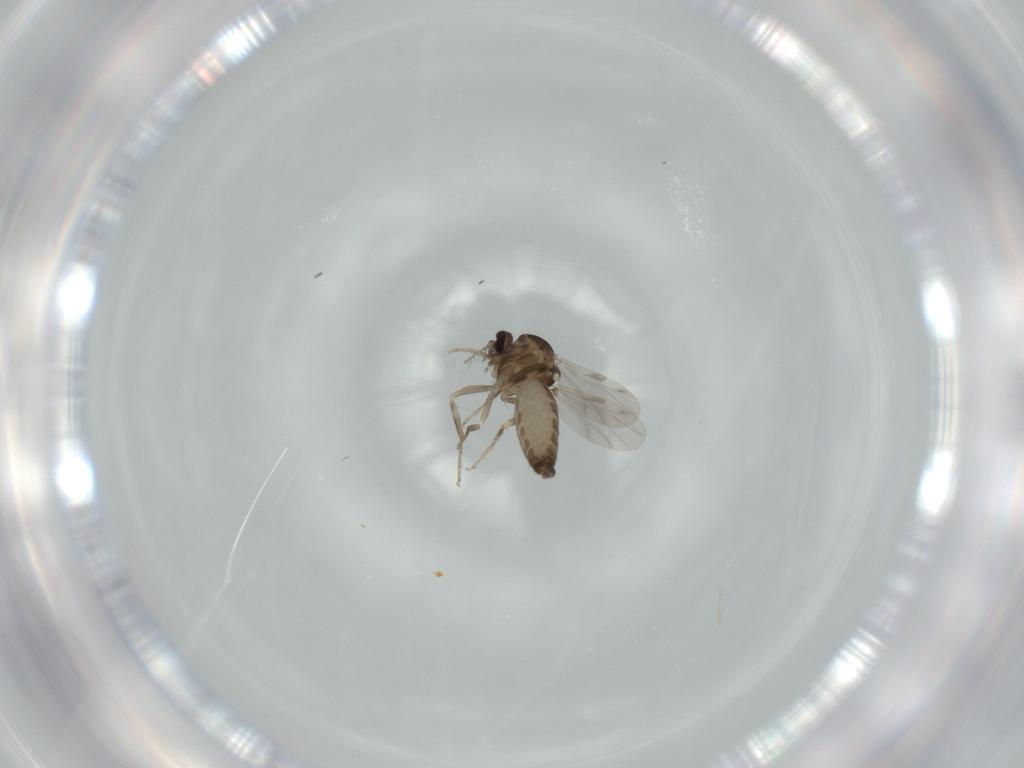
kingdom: Animalia
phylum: Arthropoda
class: Insecta
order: Diptera
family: Ceratopogonidae
